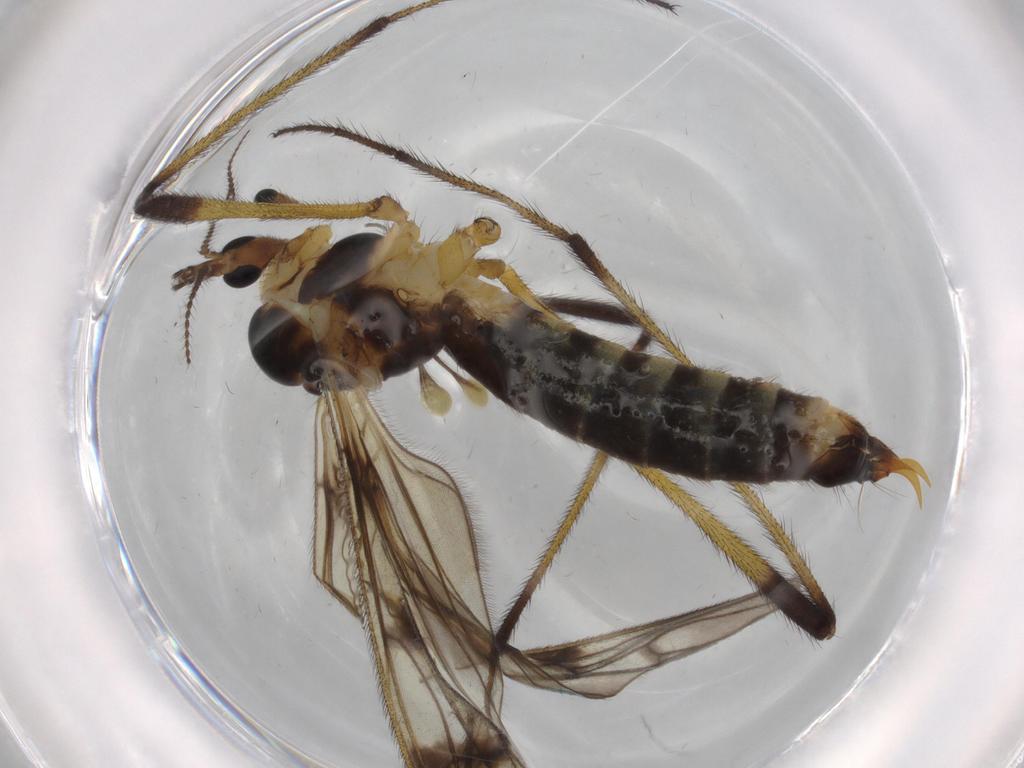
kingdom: Animalia
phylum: Arthropoda
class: Insecta
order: Diptera
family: Limoniidae
